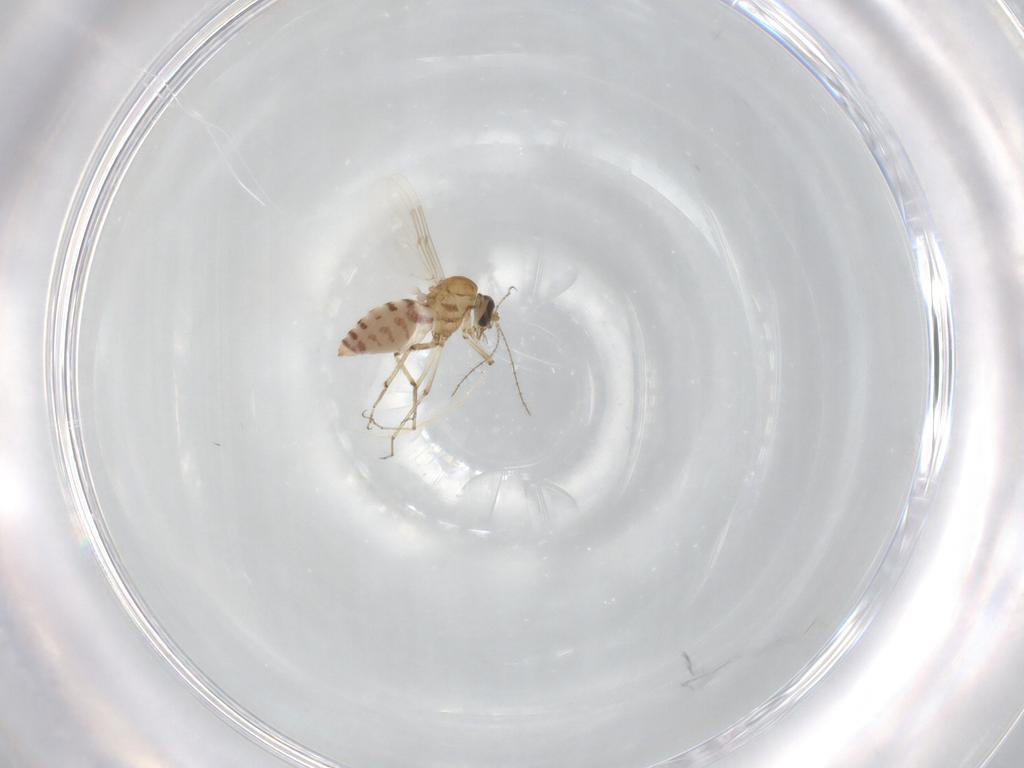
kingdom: Animalia
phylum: Arthropoda
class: Insecta
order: Diptera
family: Ceratopogonidae
